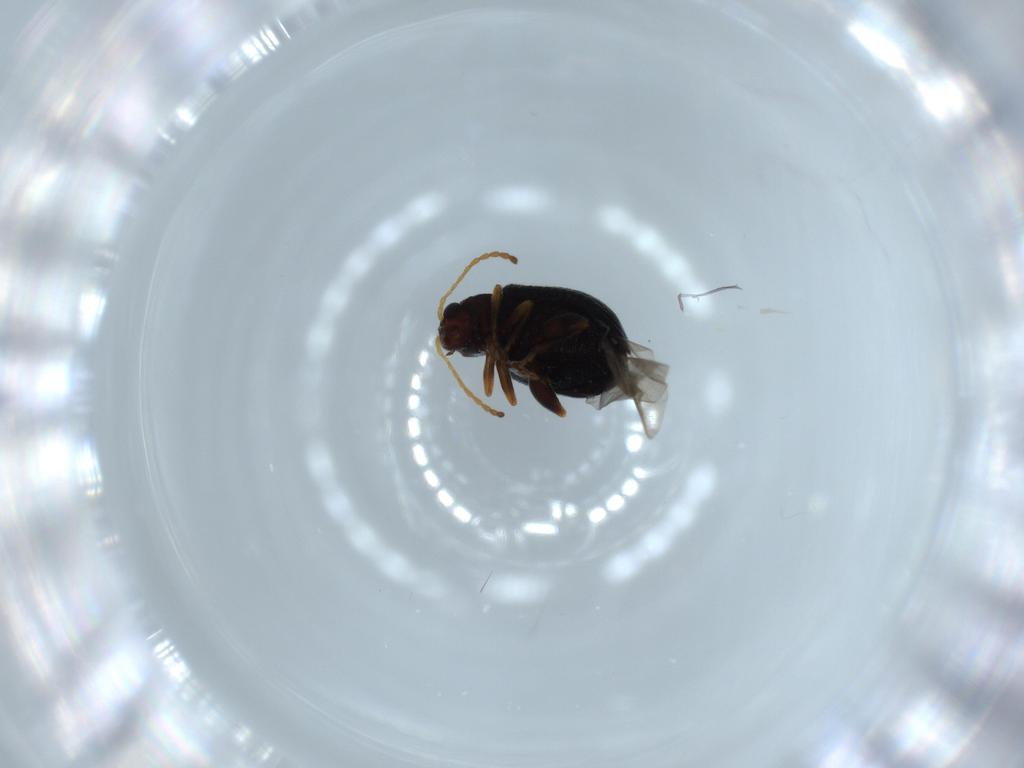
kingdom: Animalia
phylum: Arthropoda
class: Insecta
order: Coleoptera
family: Chrysomelidae
